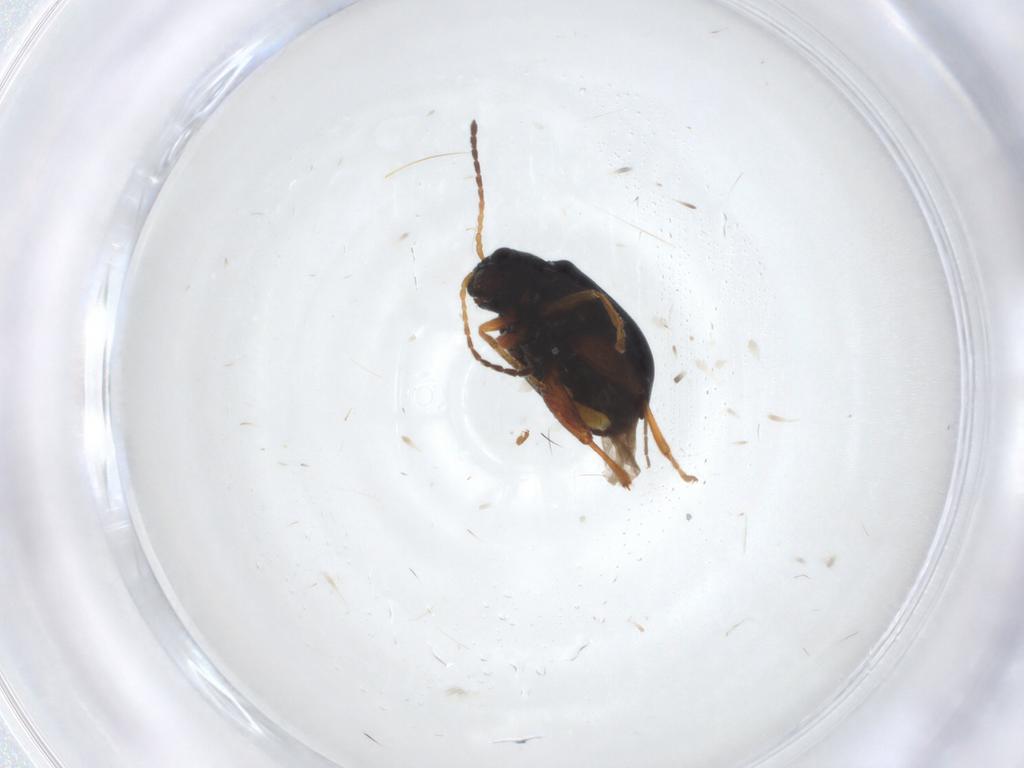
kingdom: Animalia
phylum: Arthropoda
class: Insecta
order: Coleoptera
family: Chrysomelidae
